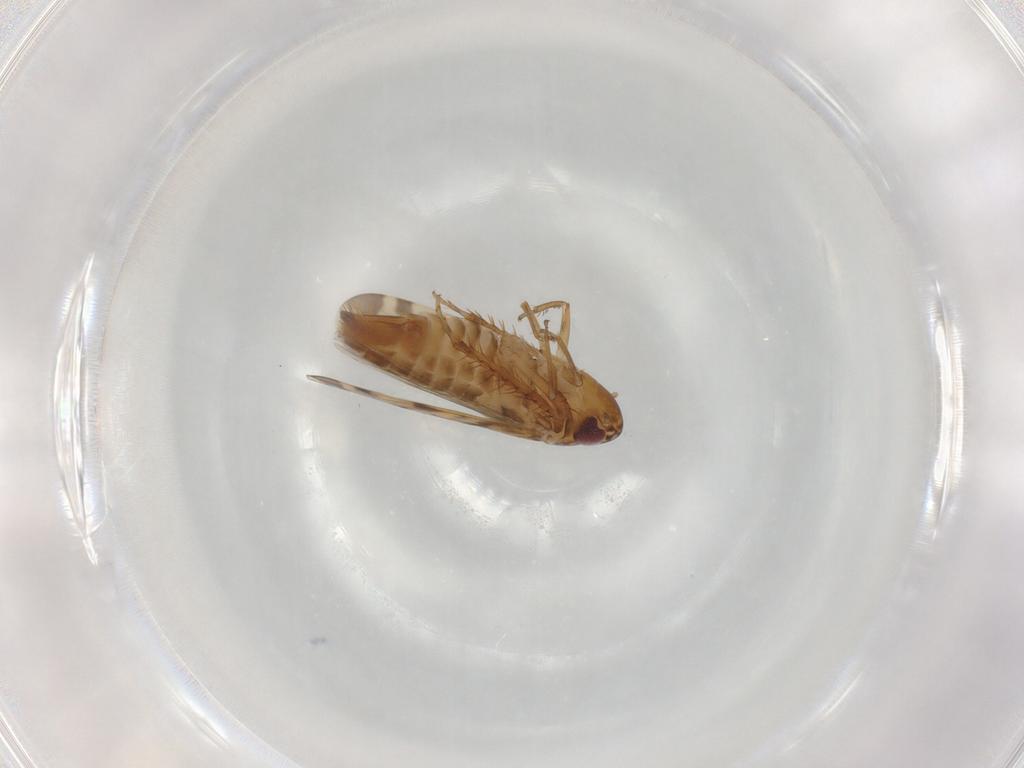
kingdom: Animalia
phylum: Arthropoda
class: Insecta
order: Hemiptera
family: Cicadellidae
